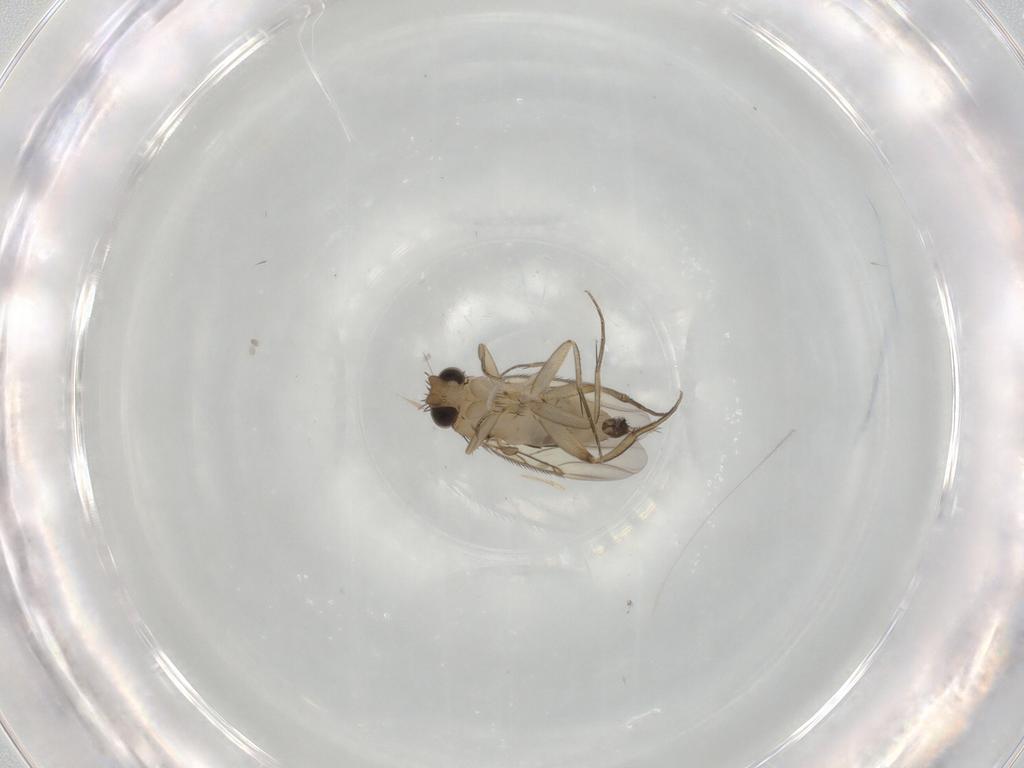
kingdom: Animalia
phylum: Arthropoda
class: Insecta
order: Diptera
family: Phoridae
